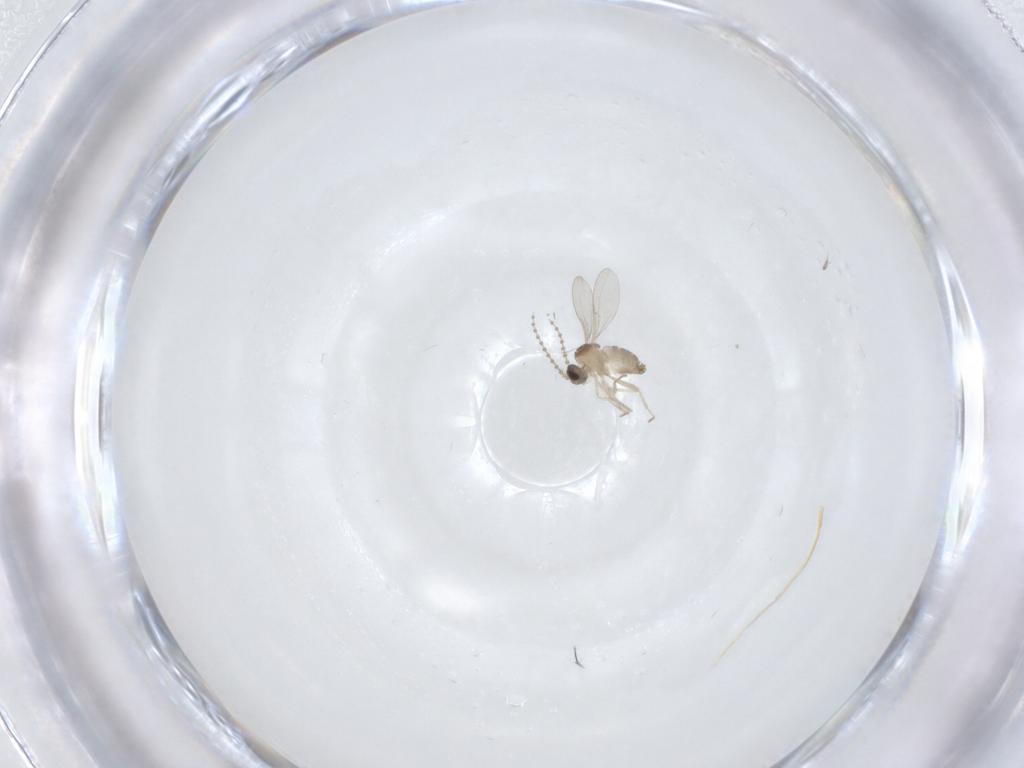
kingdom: Animalia
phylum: Arthropoda
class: Insecta
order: Diptera
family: Cecidomyiidae
